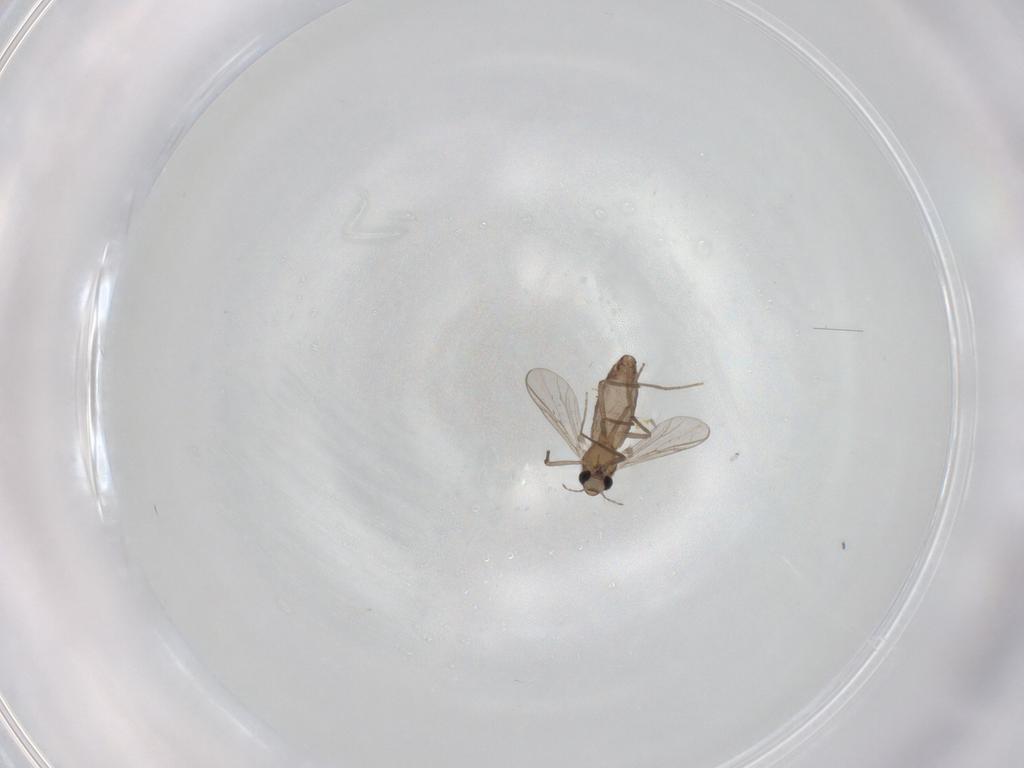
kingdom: Animalia
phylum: Arthropoda
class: Insecta
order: Diptera
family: Chironomidae
